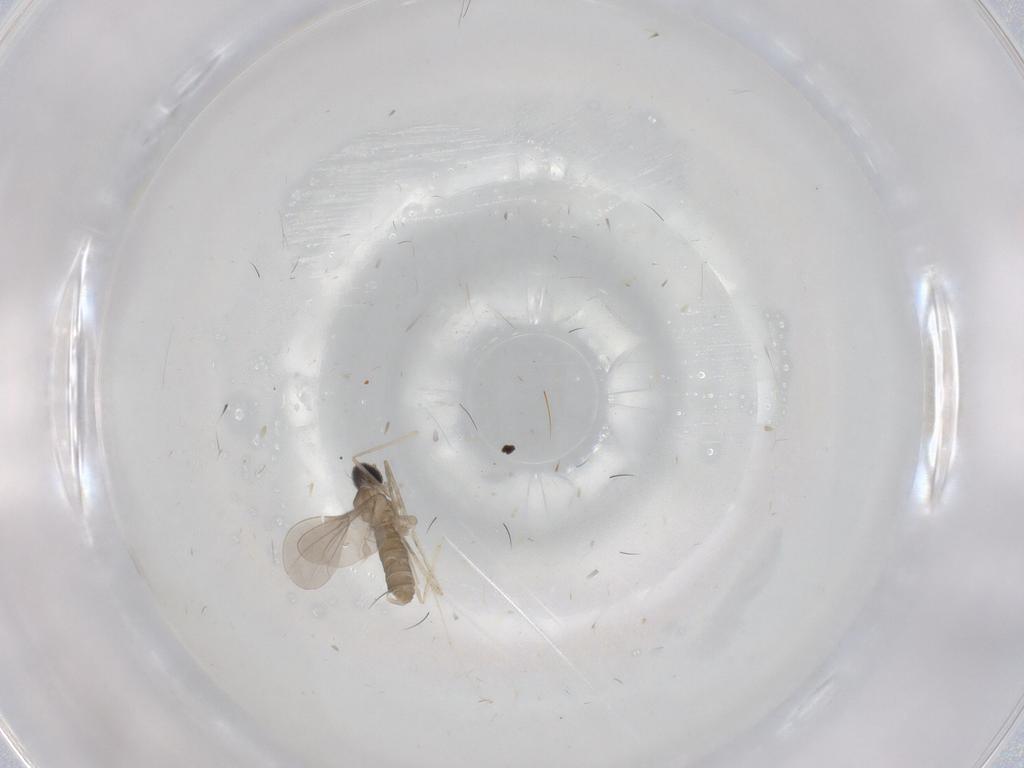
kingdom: Animalia
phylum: Arthropoda
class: Insecta
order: Diptera
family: Cecidomyiidae
